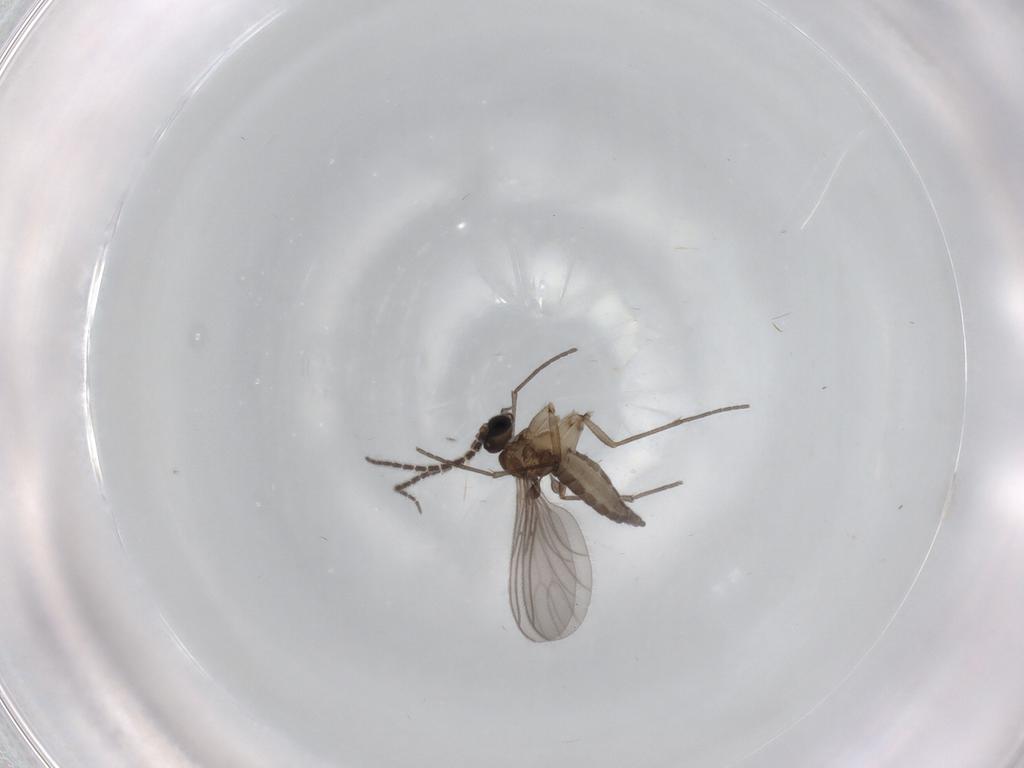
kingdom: Animalia
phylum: Arthropoda
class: Insecta
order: Diptera
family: Sciaridae
